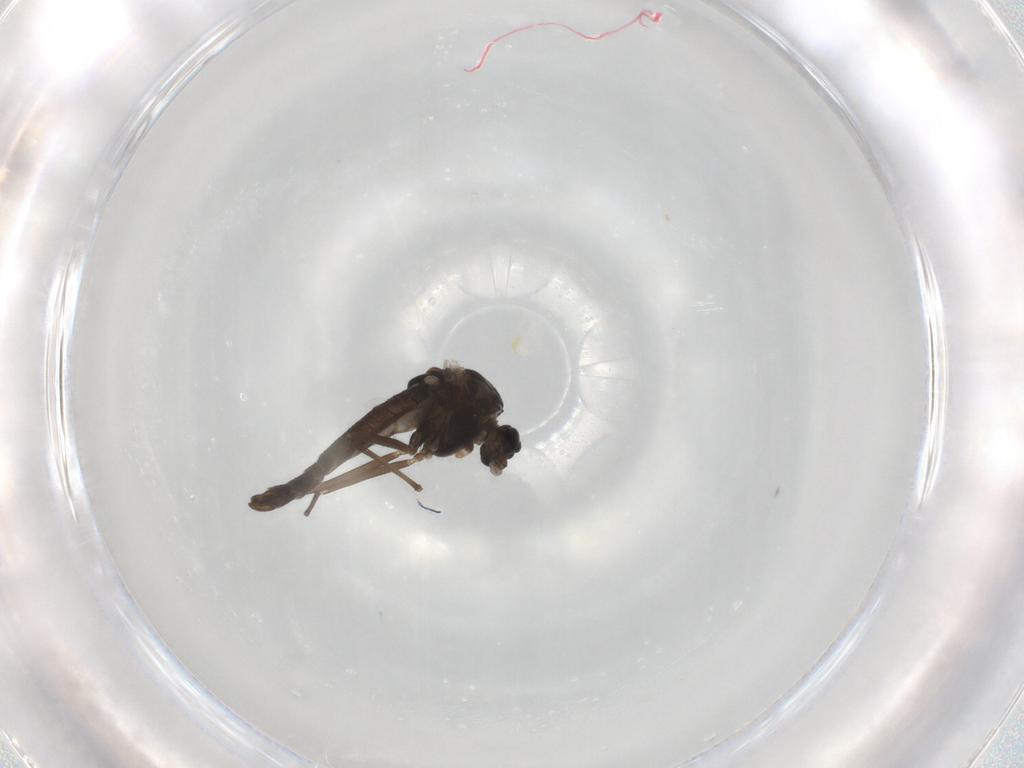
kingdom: Animalia
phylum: Arthropoda
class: Insecta
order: Diptera
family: Chironomidae
